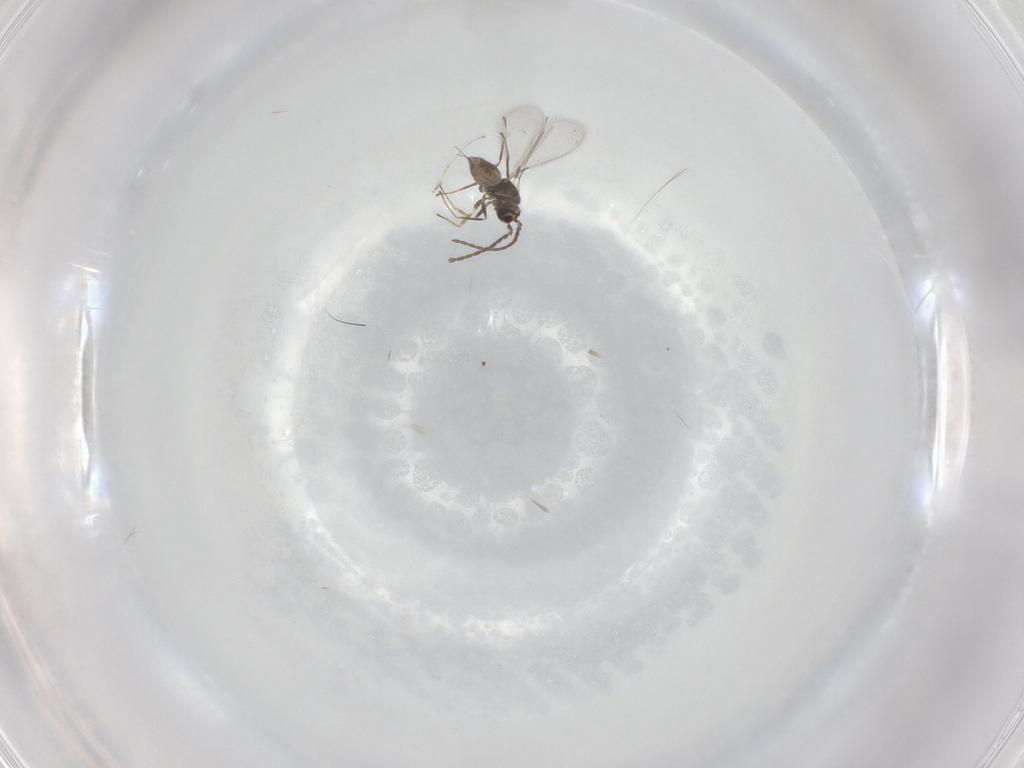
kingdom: Animalia
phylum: Arthropoda
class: Insecta
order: Hymenoptera
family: Mymaridae
